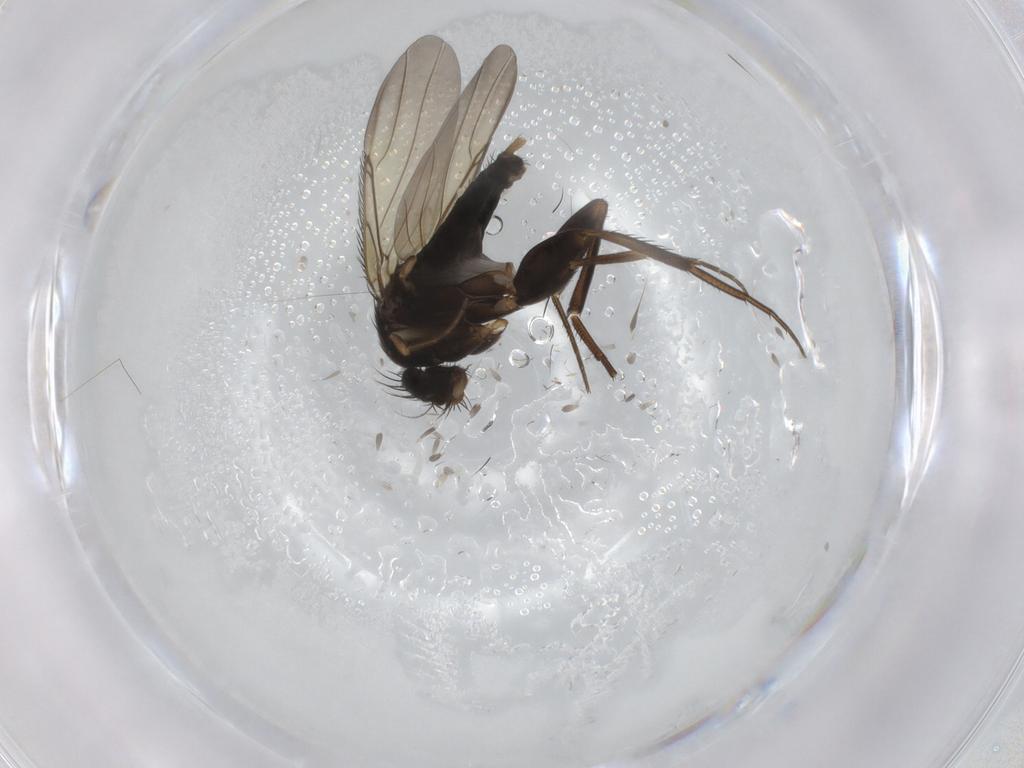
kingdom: Animalia
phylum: Arthropoda
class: Insecta
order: Diptera
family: Phoridae
